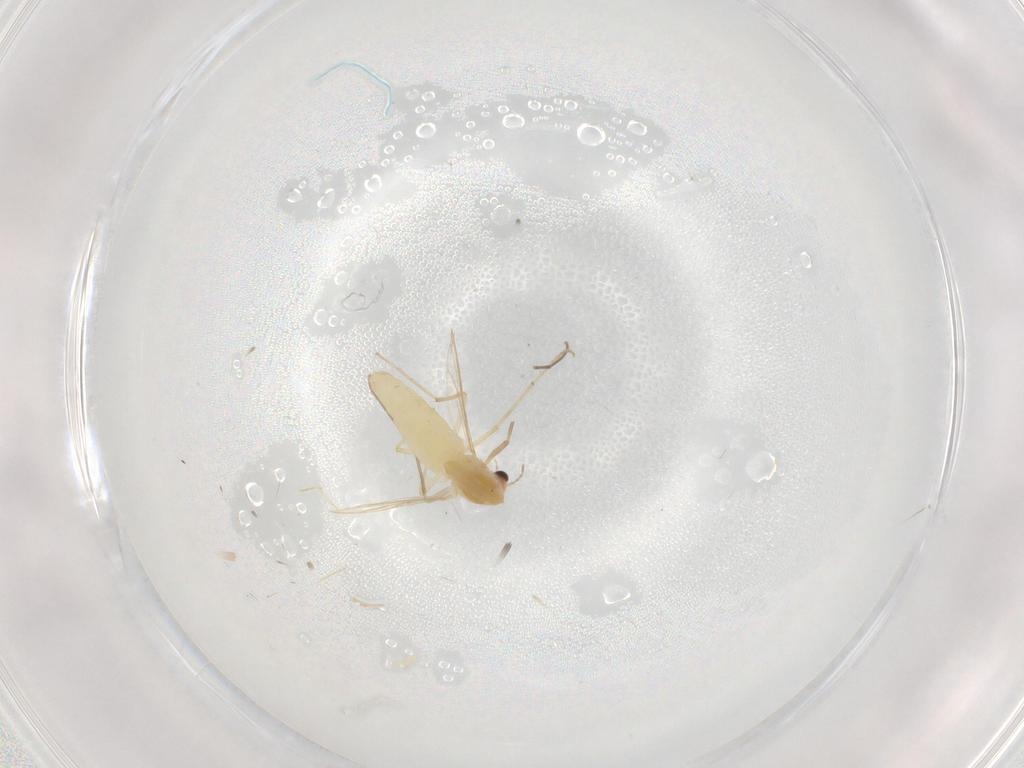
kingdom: Animalia
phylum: Arthropoda
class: Insecta
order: Diptera
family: Chironomidae
